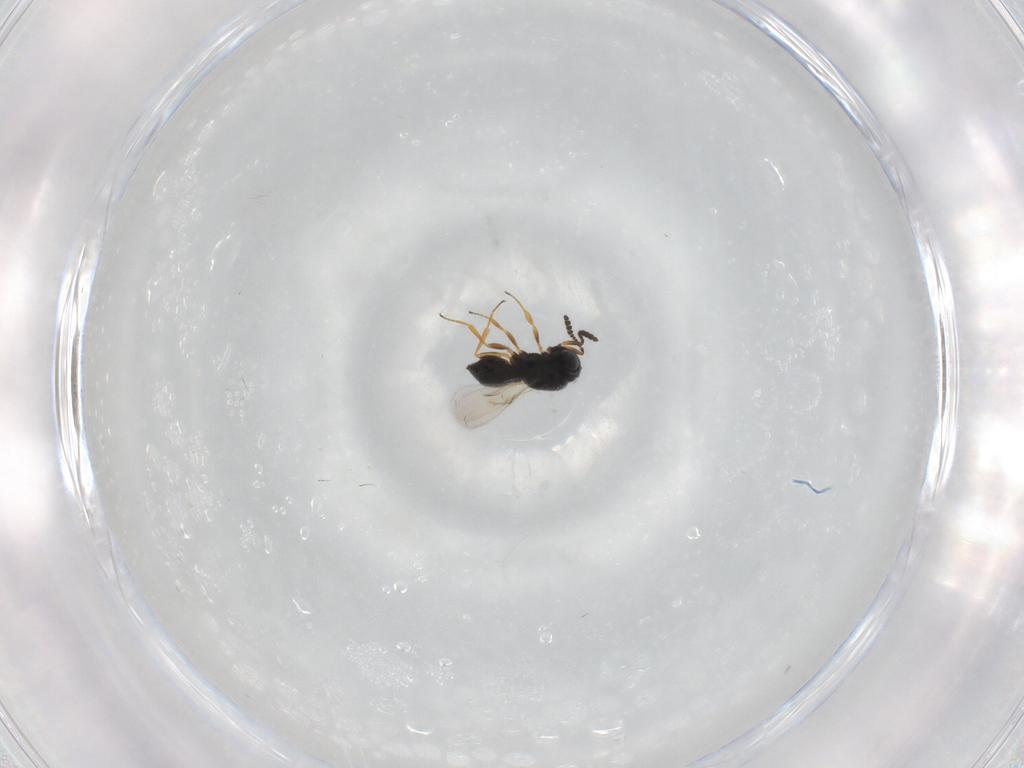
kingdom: Animalia
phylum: Arthropoda
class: Insecta
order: Hymenoptera
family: Scelionidae
